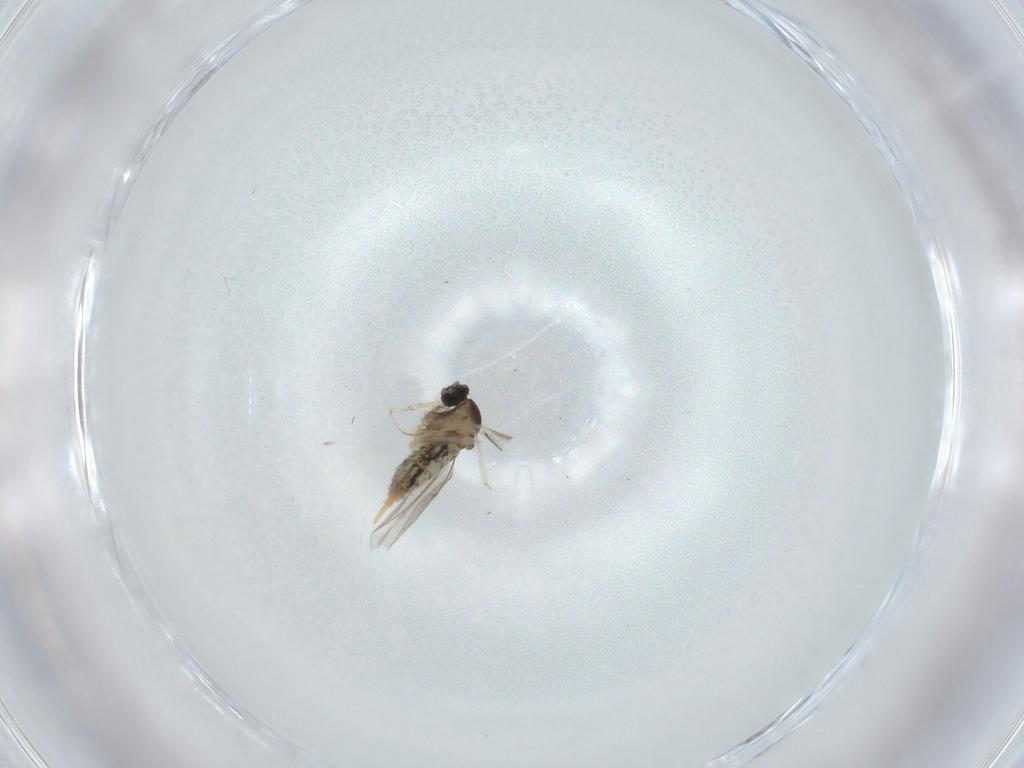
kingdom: Animalia
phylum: Arthropoda
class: Insecta
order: Diptera
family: Cecidomyiidae
